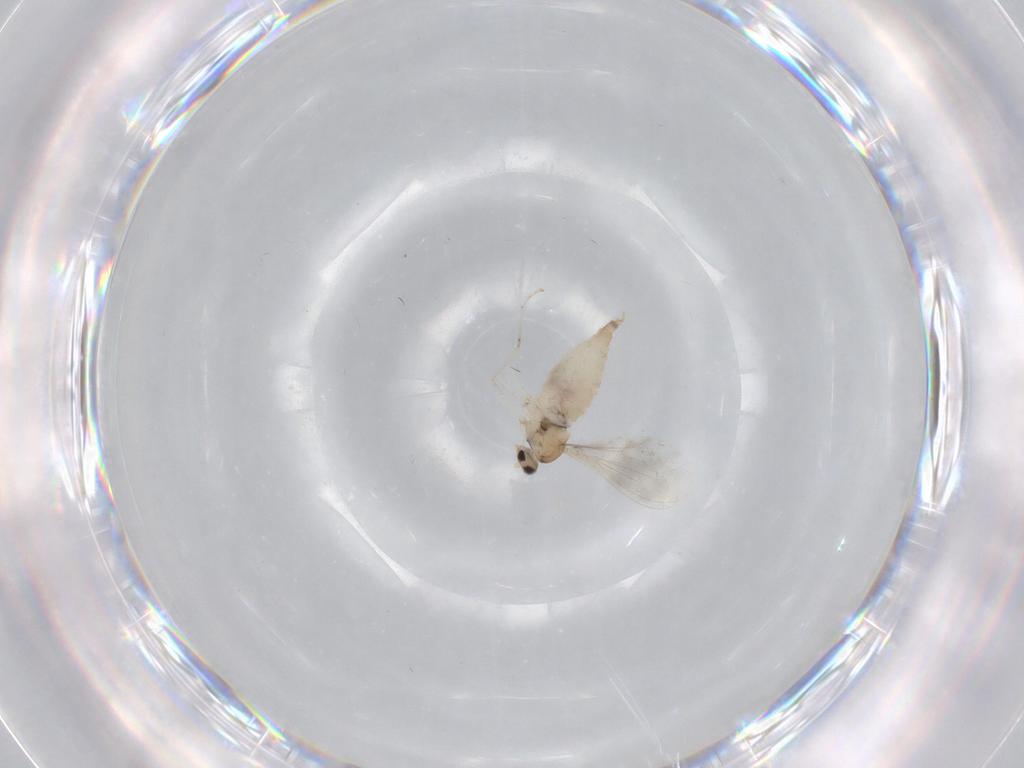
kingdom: Animalia
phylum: Arthropoda
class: Insecta
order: Diptera
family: Cecidomyiidae
